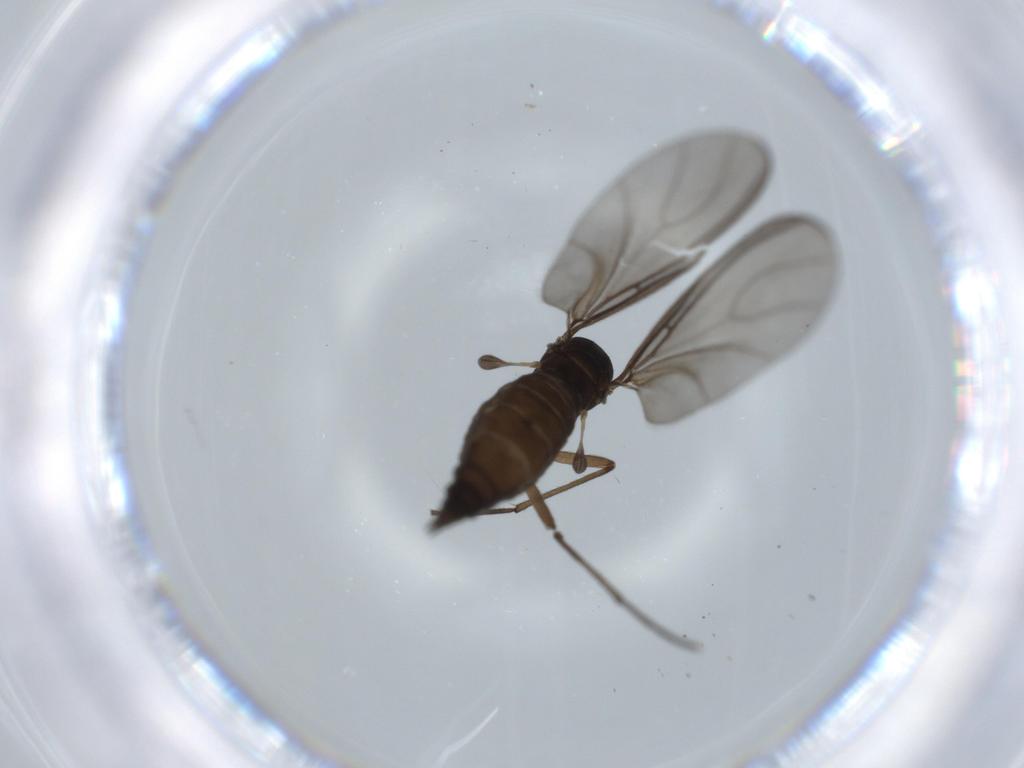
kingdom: Animalia
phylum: Arthropoda
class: Insecta
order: Diptera
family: Sciaridae
